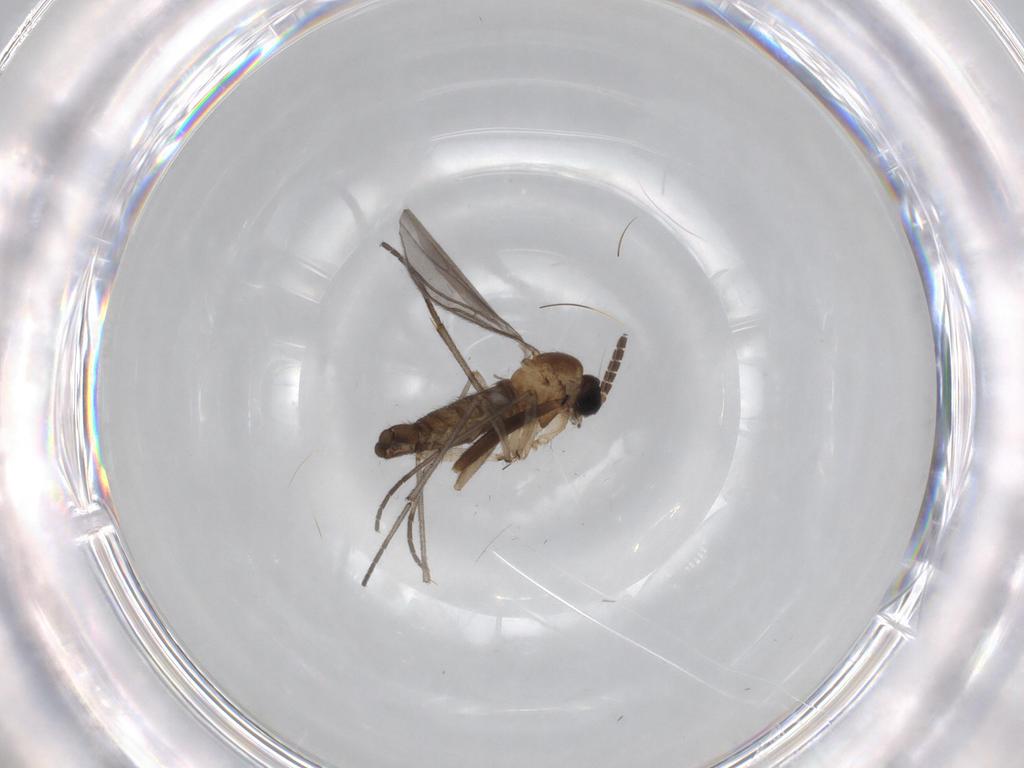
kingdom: Animalia
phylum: Arthropoda
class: Insecta
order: Diptera
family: Sciaridae
